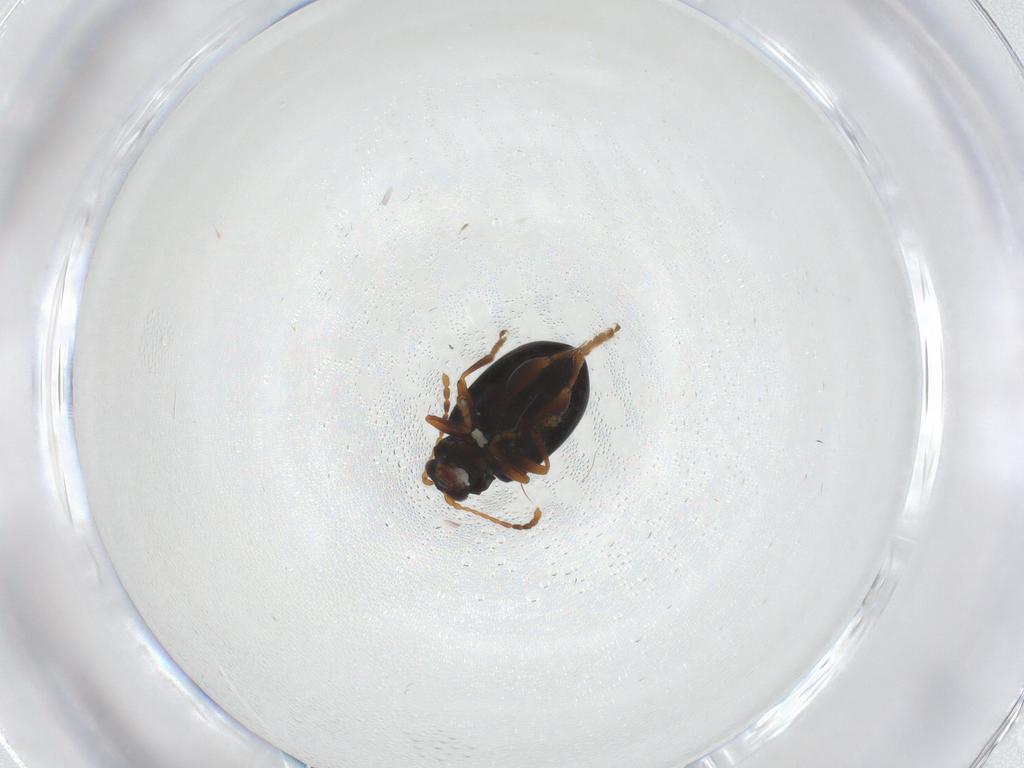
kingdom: Animalia
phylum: Arthropoda
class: Insecta
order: Coleoptera
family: Chrysomelidae
